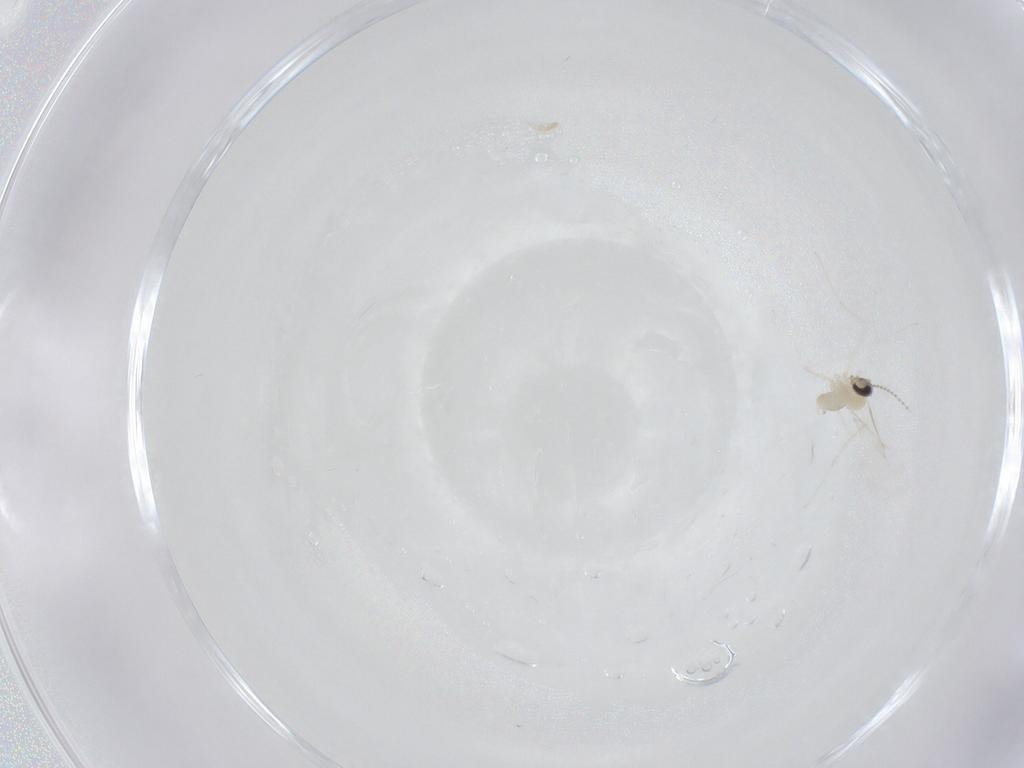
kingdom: Animalia
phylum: Arthropoda
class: Insecta
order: Diptera
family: Cecidomyiidae
